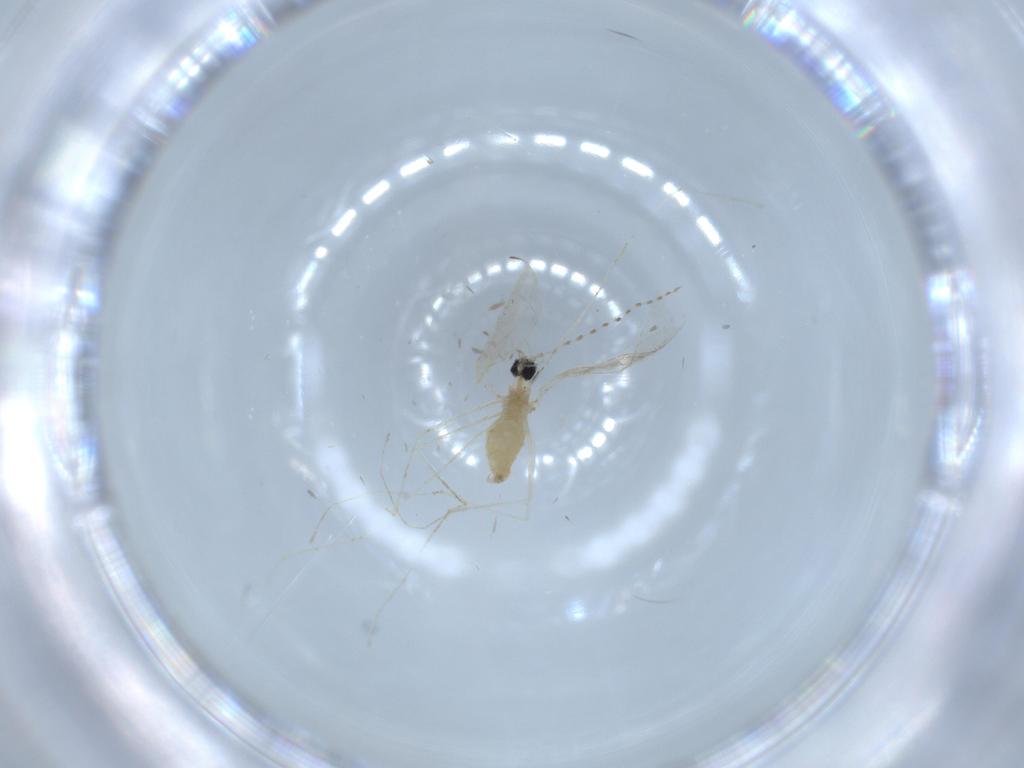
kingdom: Animalia
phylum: Arthropoda
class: Insecta
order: Diptera
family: Cecidomyiidae
